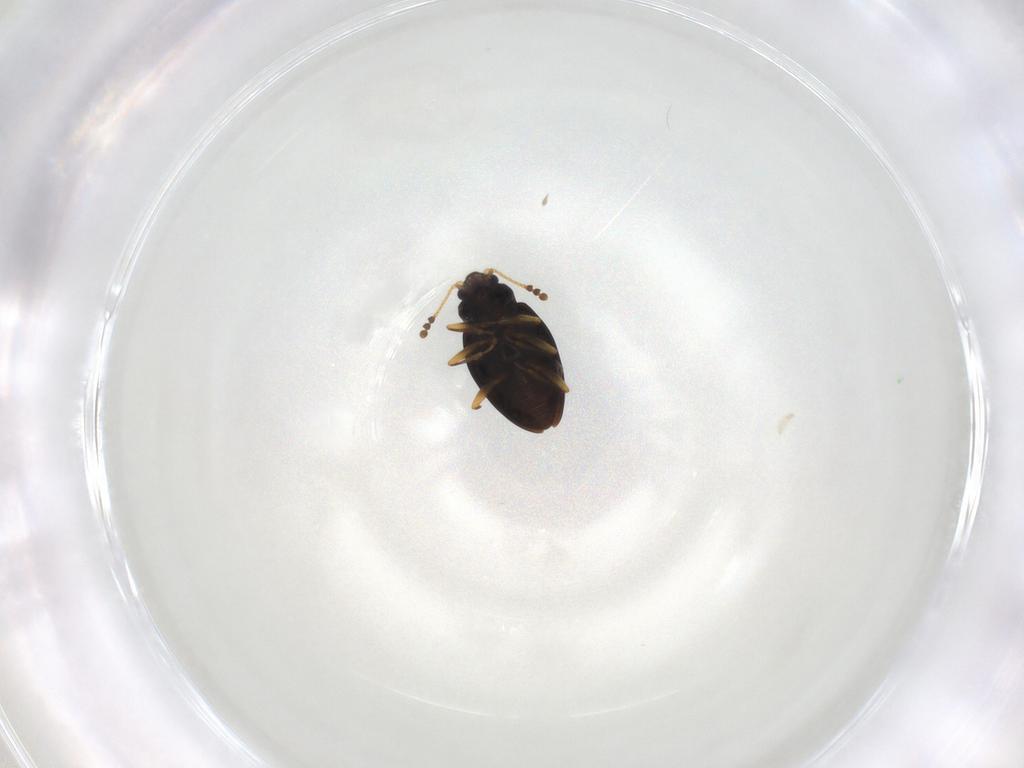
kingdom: Animalia
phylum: Arthropoda
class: Insecta
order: Coleoptera
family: Erotylidae
